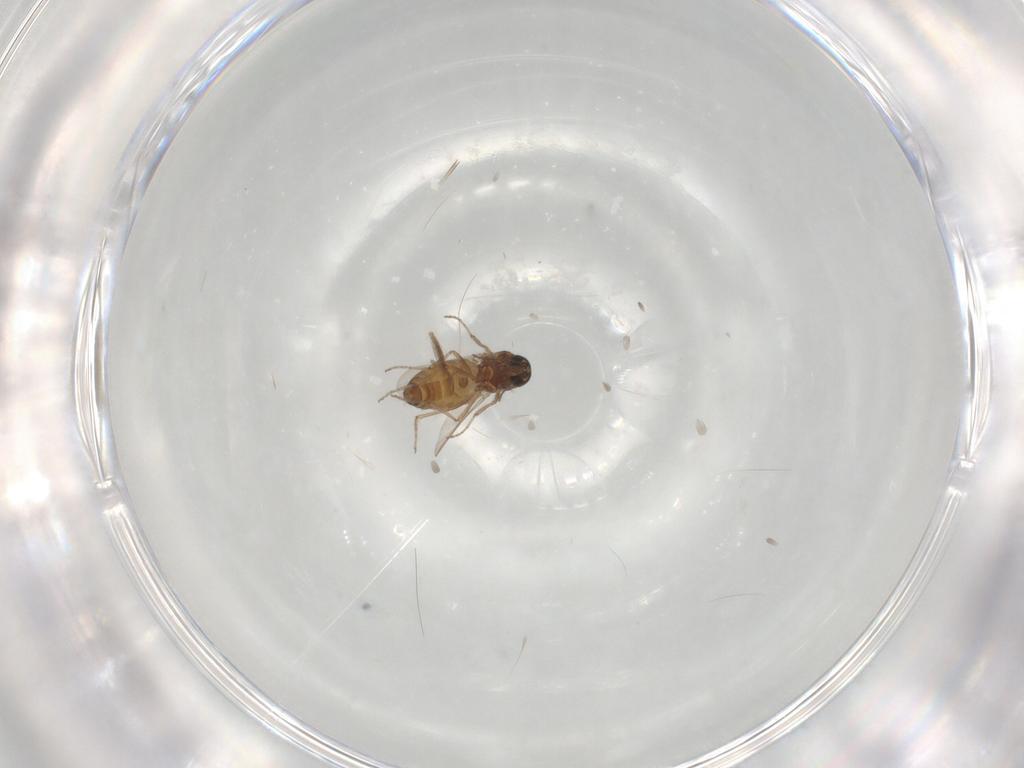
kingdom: Animalia
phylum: Arthropoda
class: Insecta
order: Diptera
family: Ceratopogonidae
